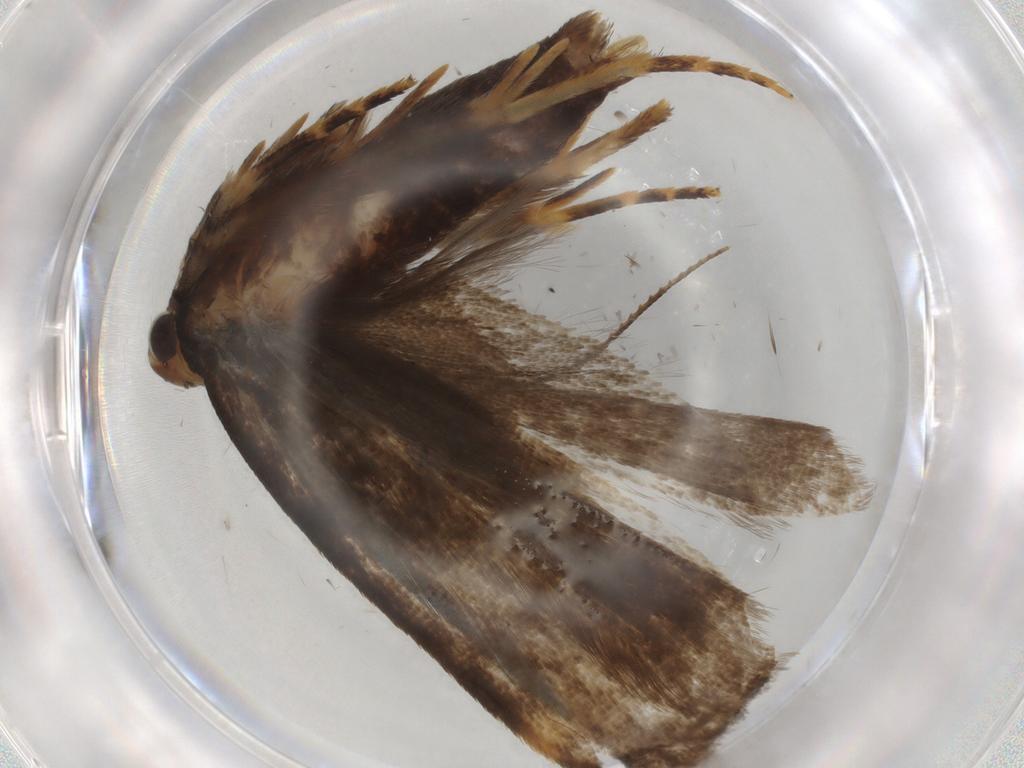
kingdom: Animalia
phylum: Arthropoda
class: Insecta
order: Lepidoptera
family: Gelechiidae
